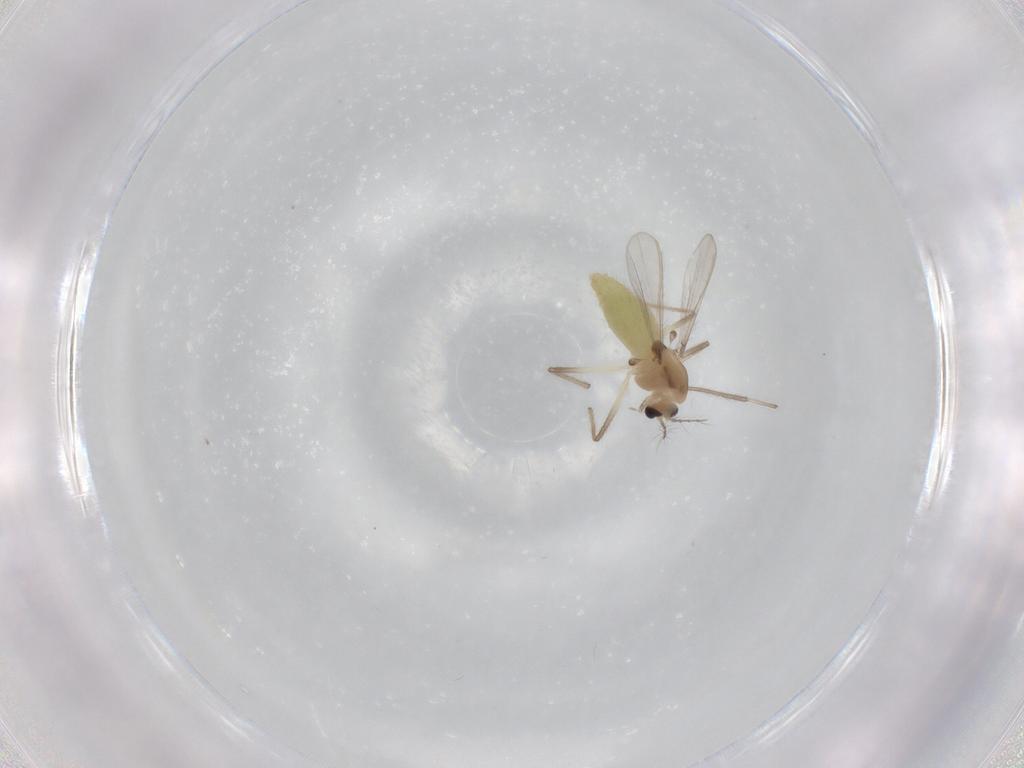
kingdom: Animalia
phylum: Arthropoda
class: Insecta
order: Diptera
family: Chironomidae
